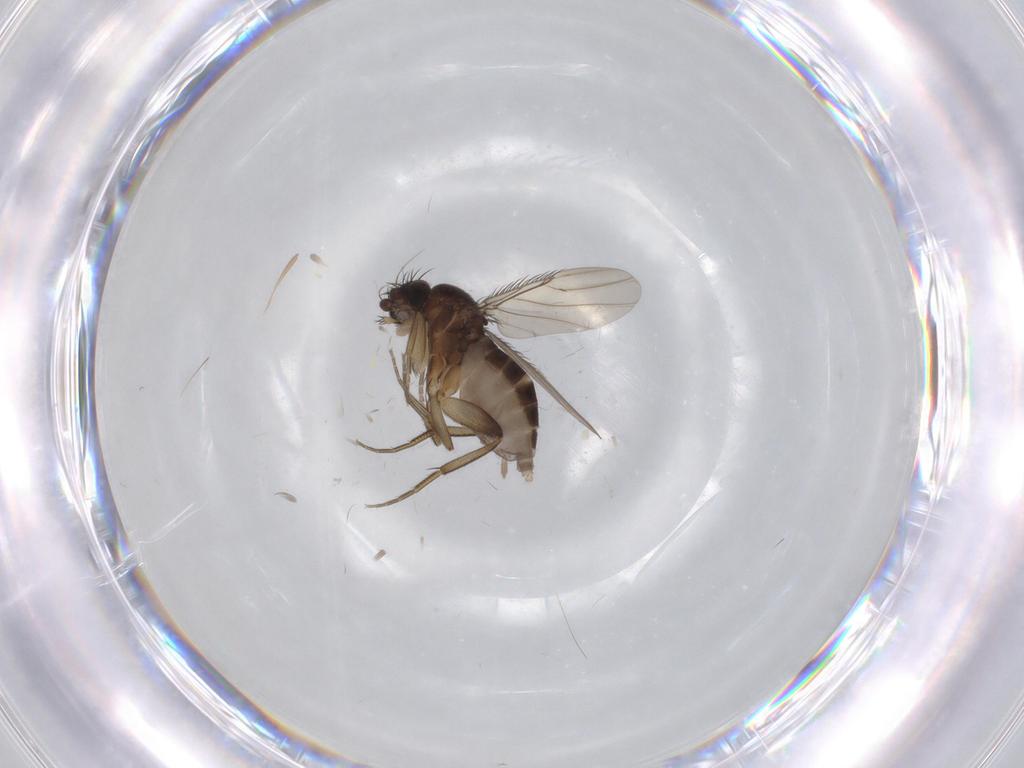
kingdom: Animalia
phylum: Arthropoda
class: Insecta
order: Diptera
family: Phoridae
